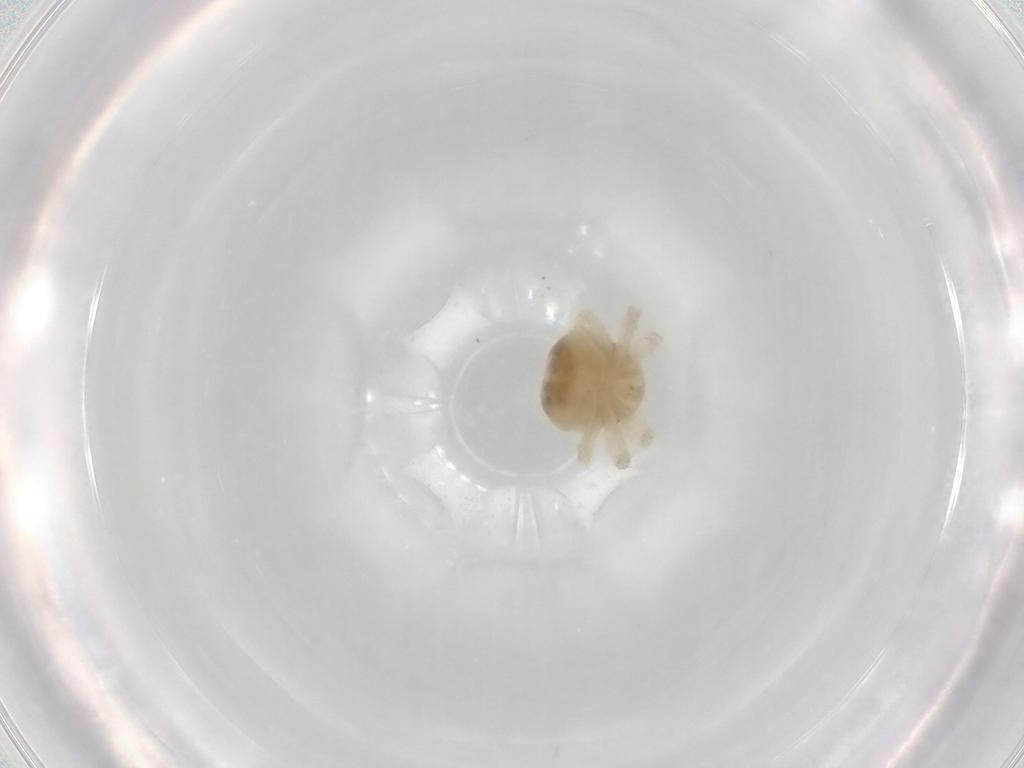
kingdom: Animalia
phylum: Arthropoda
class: Arachnida
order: Trombidiformes
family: Anystidae
